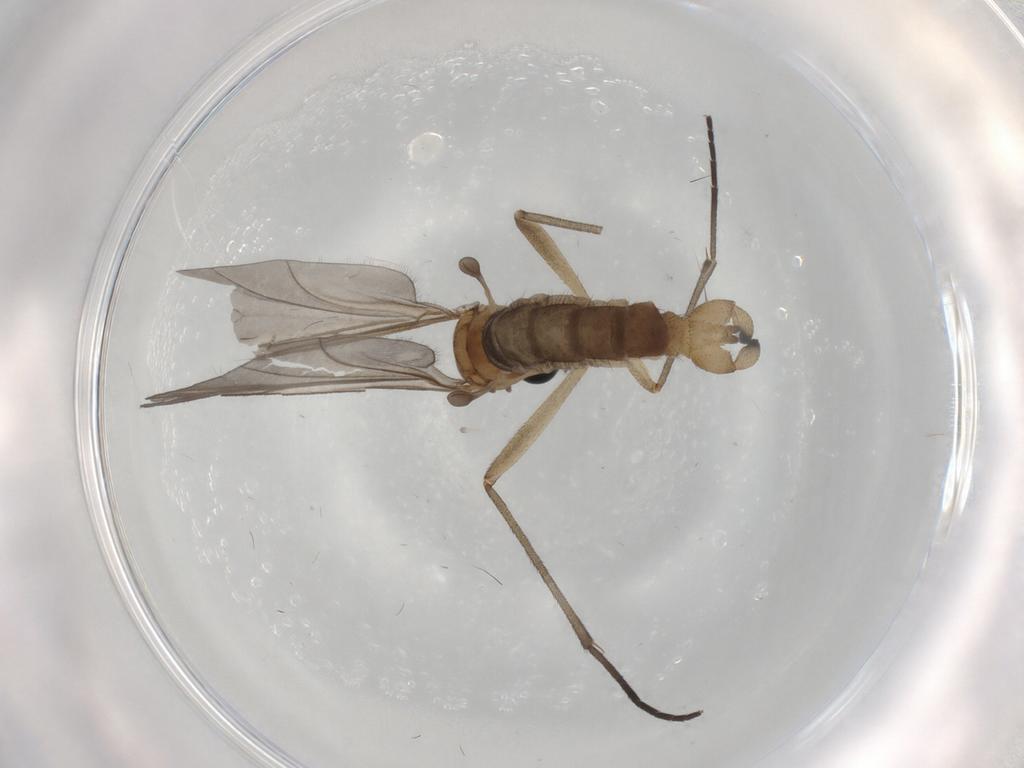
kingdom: Animalia
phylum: Arthropoda
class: Insecta
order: Diptera
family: Sciaridae
